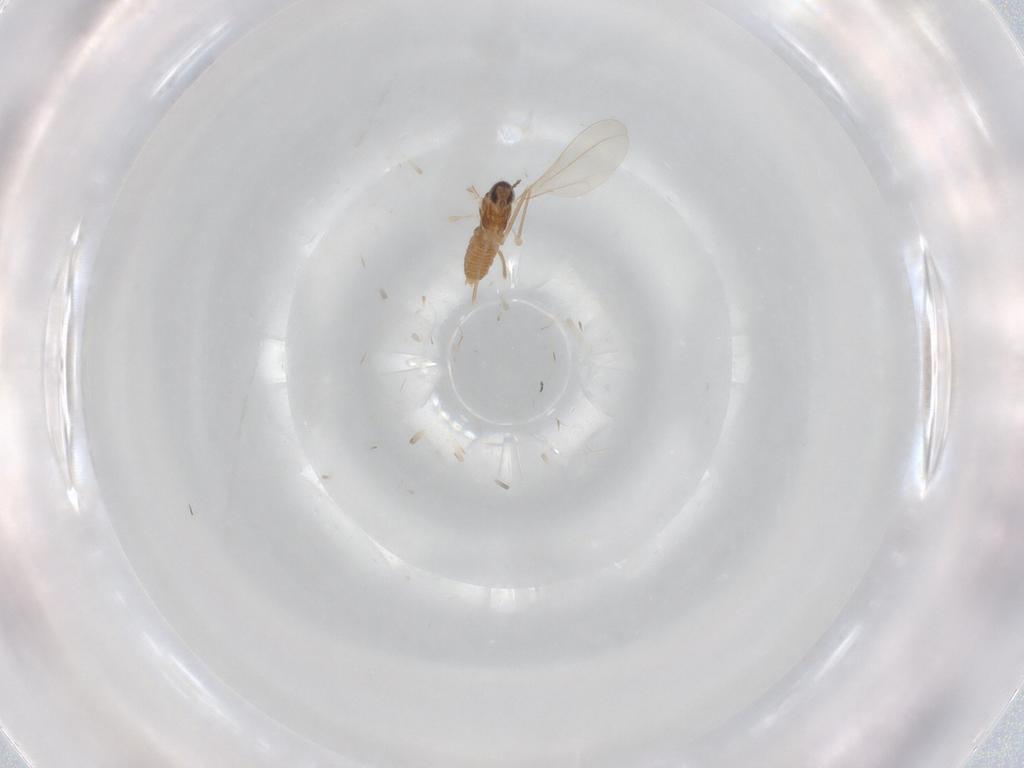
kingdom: Animalia
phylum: Arthropoda
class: Insecta
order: Diptera
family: Cecidomyiidae
